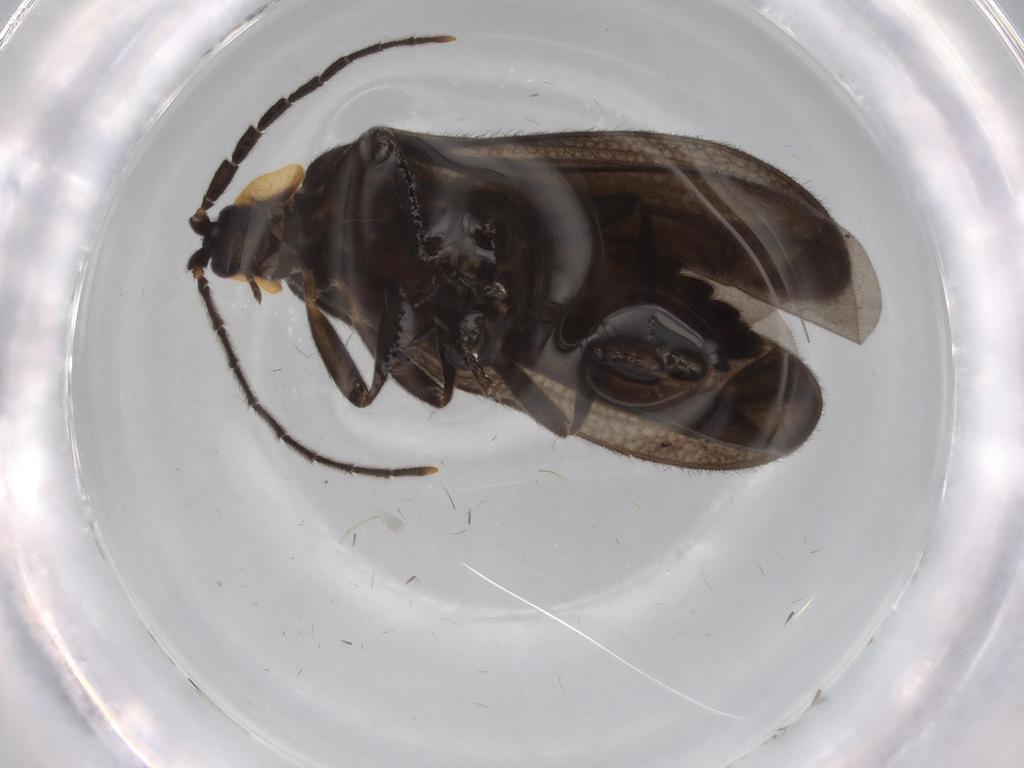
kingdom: Animalia
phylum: Arthropoda
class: Insecta
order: Coleoptera
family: Lycidae
